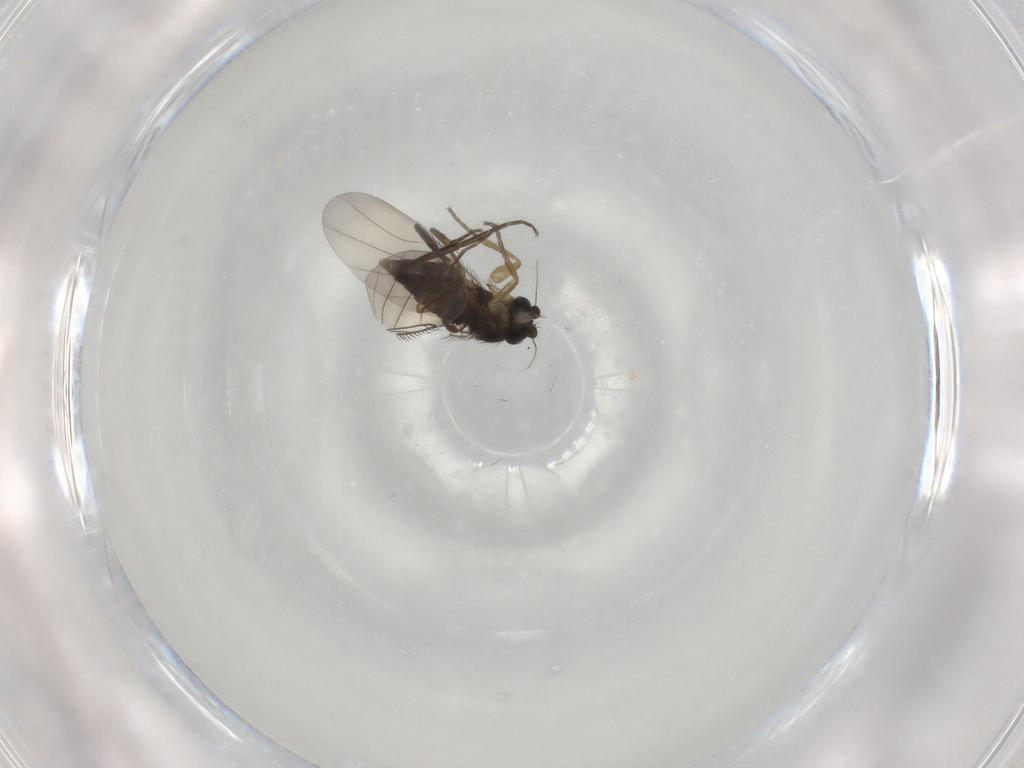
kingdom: Animalia
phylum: Arthropoda
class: Insecta
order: Diptera
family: Phoridae
